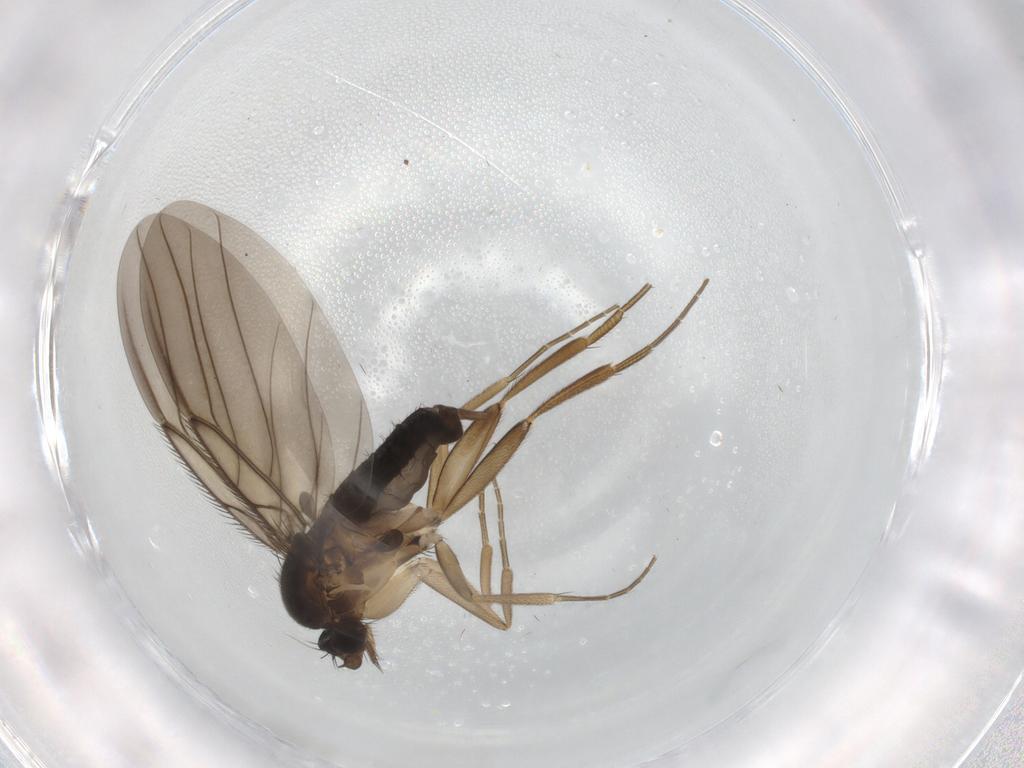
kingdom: Animalia
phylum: Arthropoda
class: Insecta
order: Diptera
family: Phoridae
